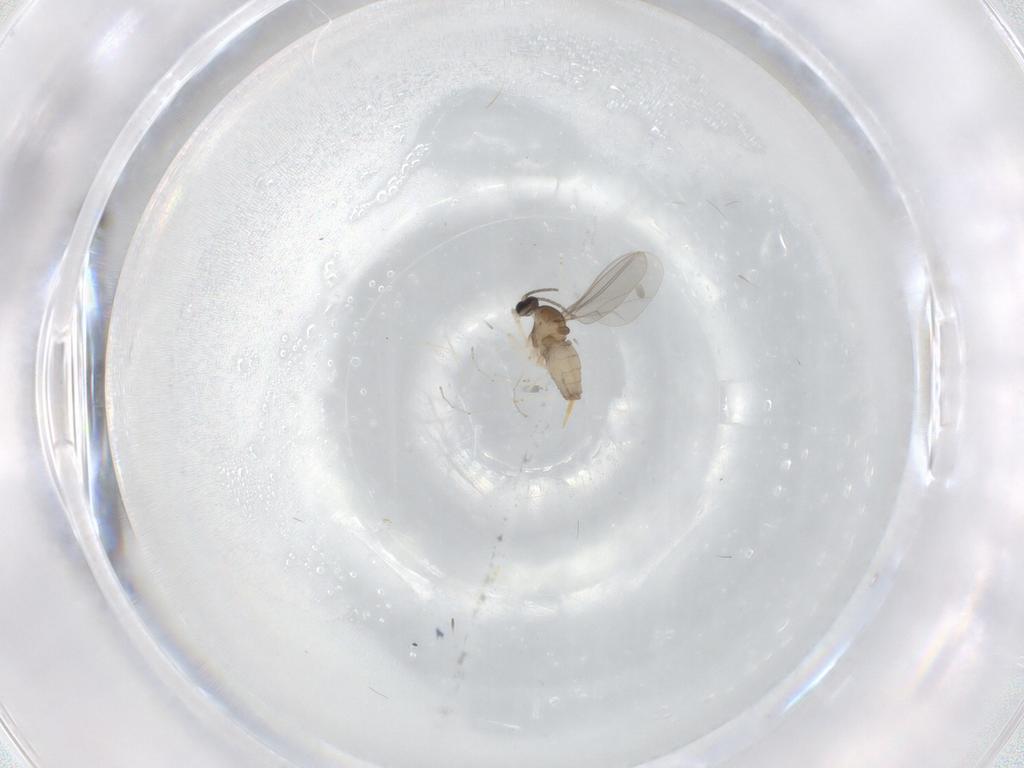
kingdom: Animalia
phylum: Arthropoda
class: Insecta
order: Diptera
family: Cecidomyiidae
